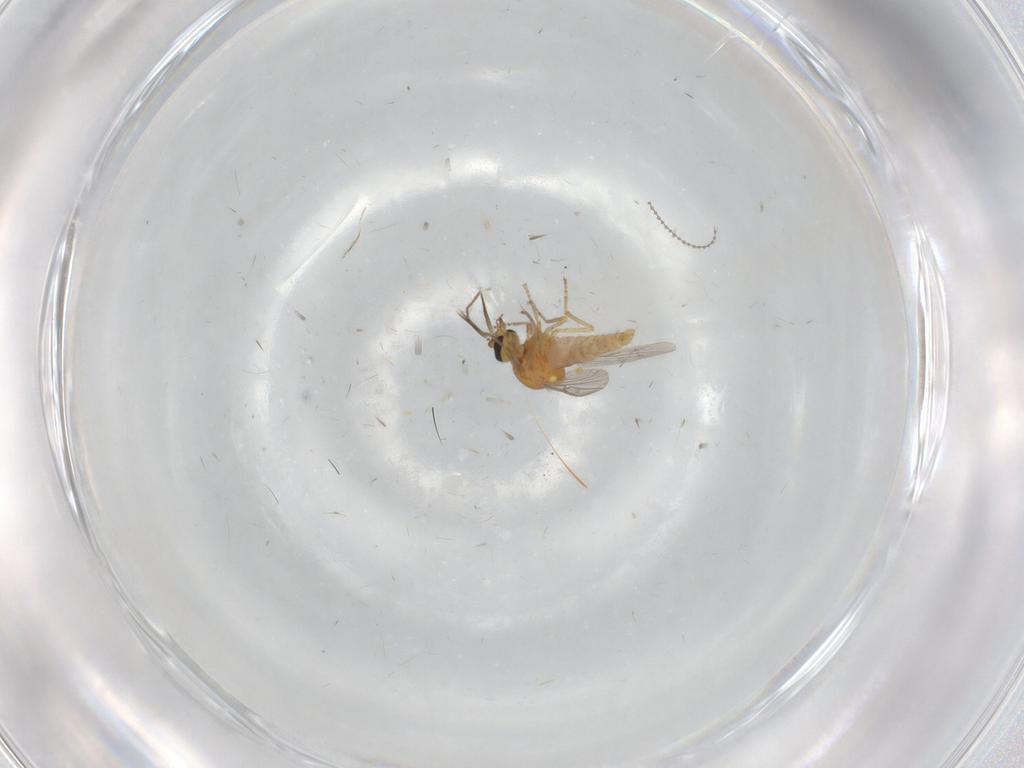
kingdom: Animalia
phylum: Arthropoda
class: Insecta
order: Diptera
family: Ceratopogonidae
